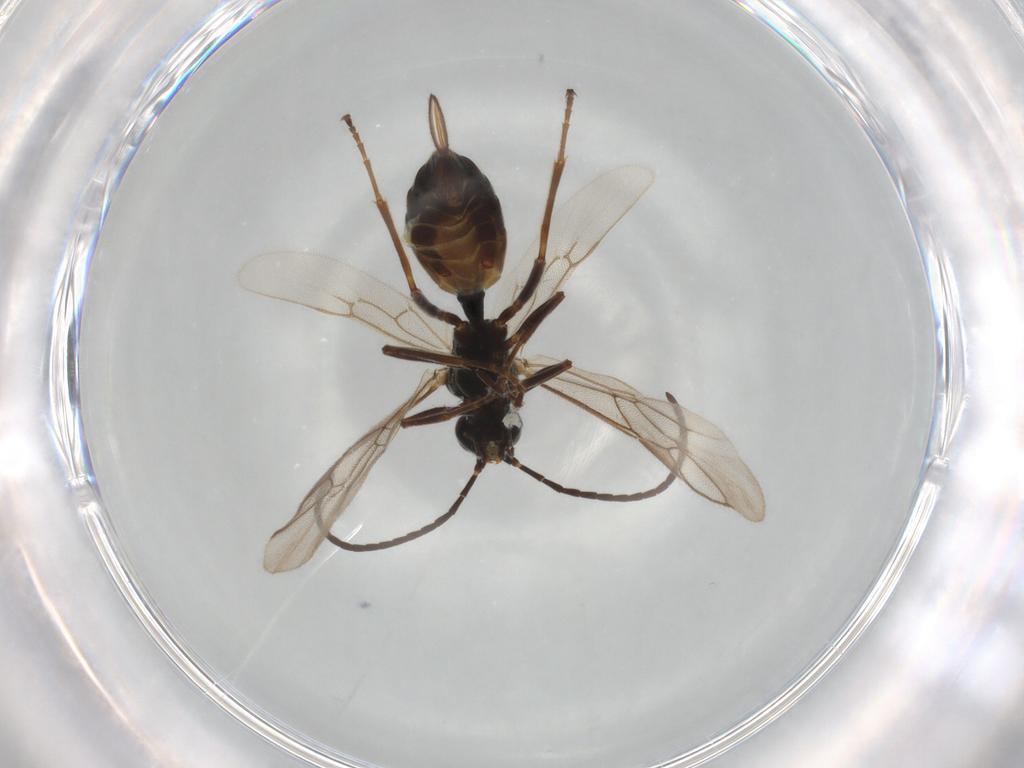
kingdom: Animalia
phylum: Arthropoda
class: Insecta
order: Hymenoptera
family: Ichneumonidae
